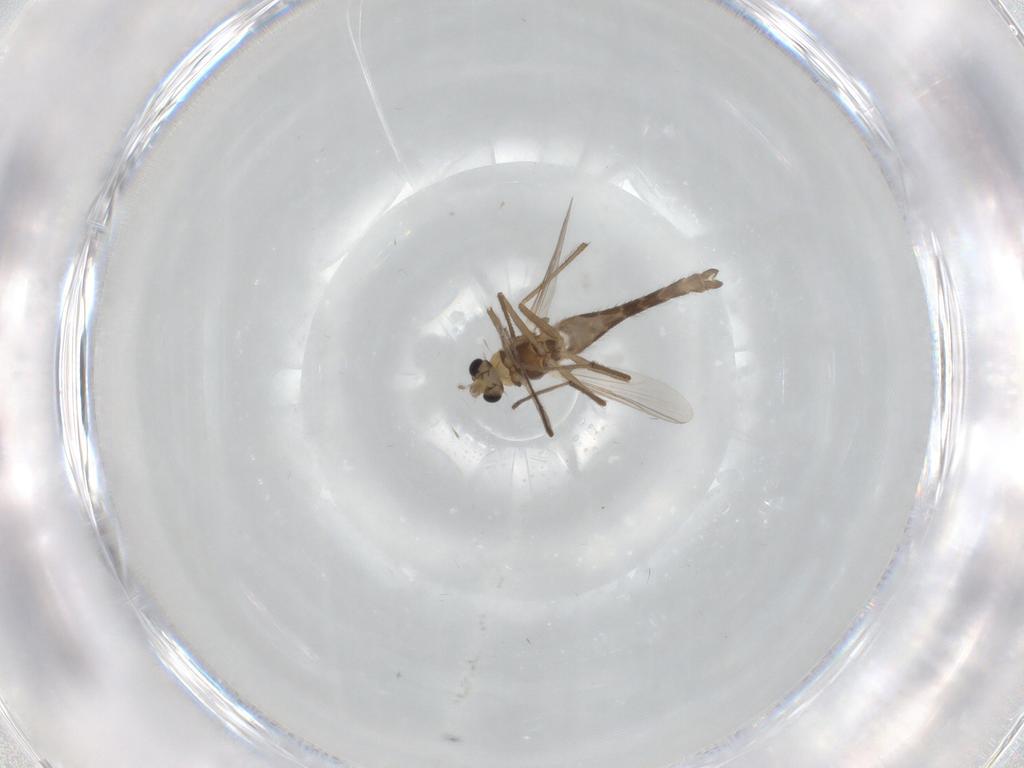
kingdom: Animalia
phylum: Arthropoda
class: Insecta
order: Diptera
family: Chironomidae
